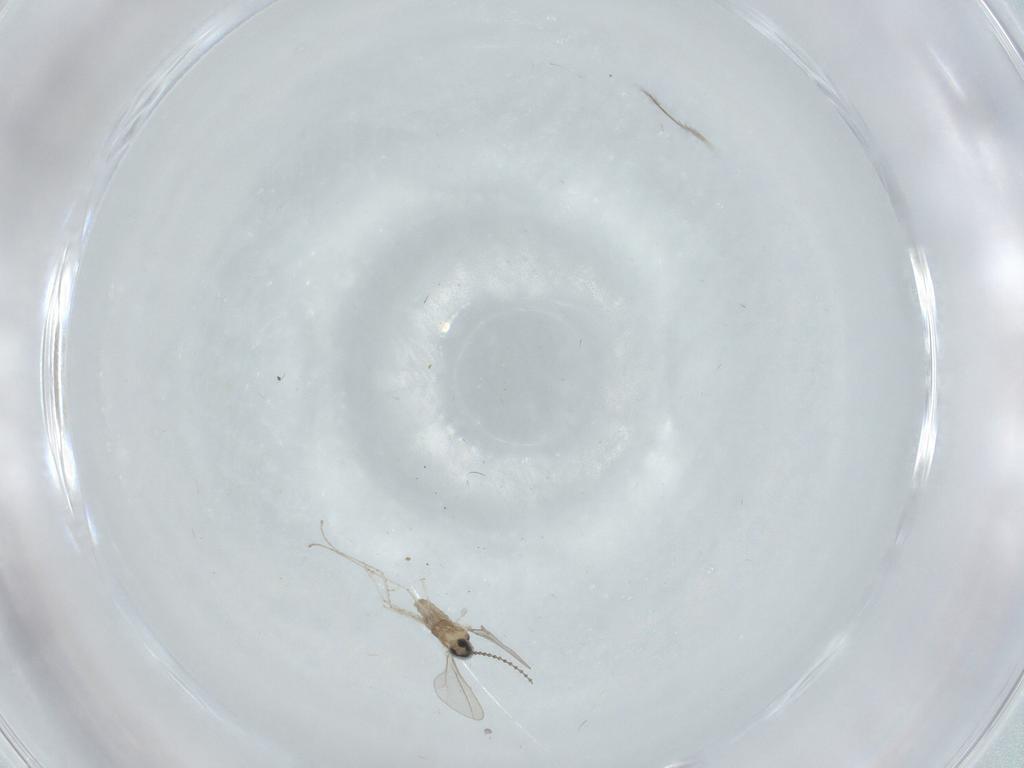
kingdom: Animalia
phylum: Arthropoda
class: Insecta
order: Diptera
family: Cecidomyiidae
